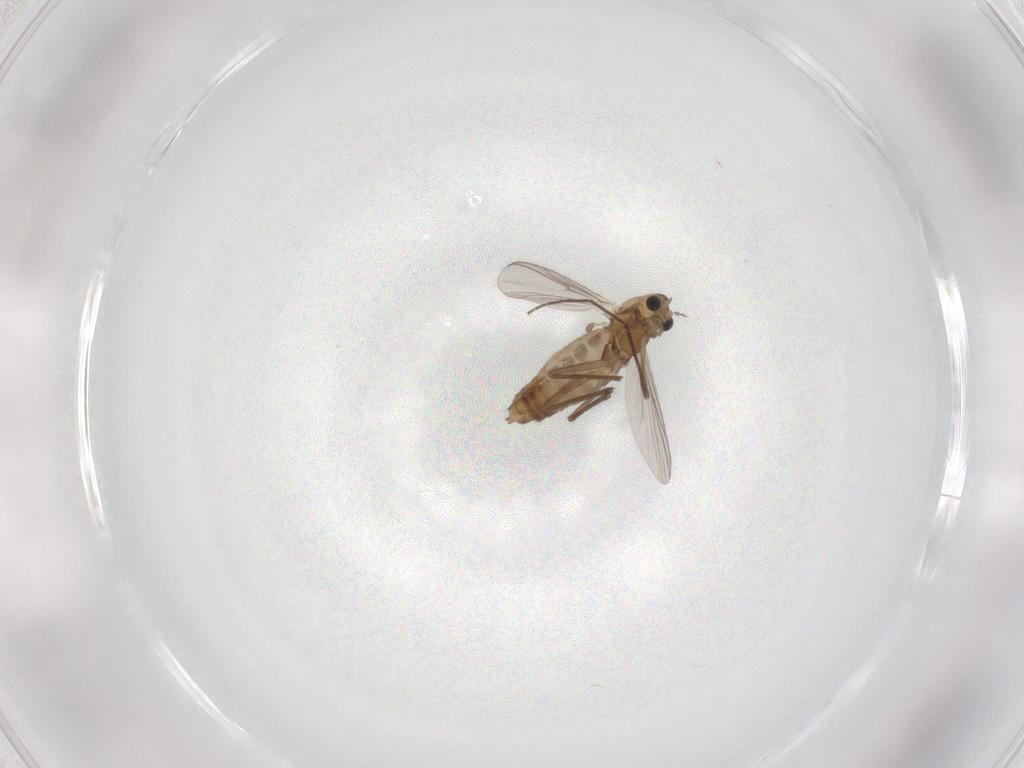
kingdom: Animalia
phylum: Arthropoda
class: Insecta
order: Diptera
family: Chironomidae
